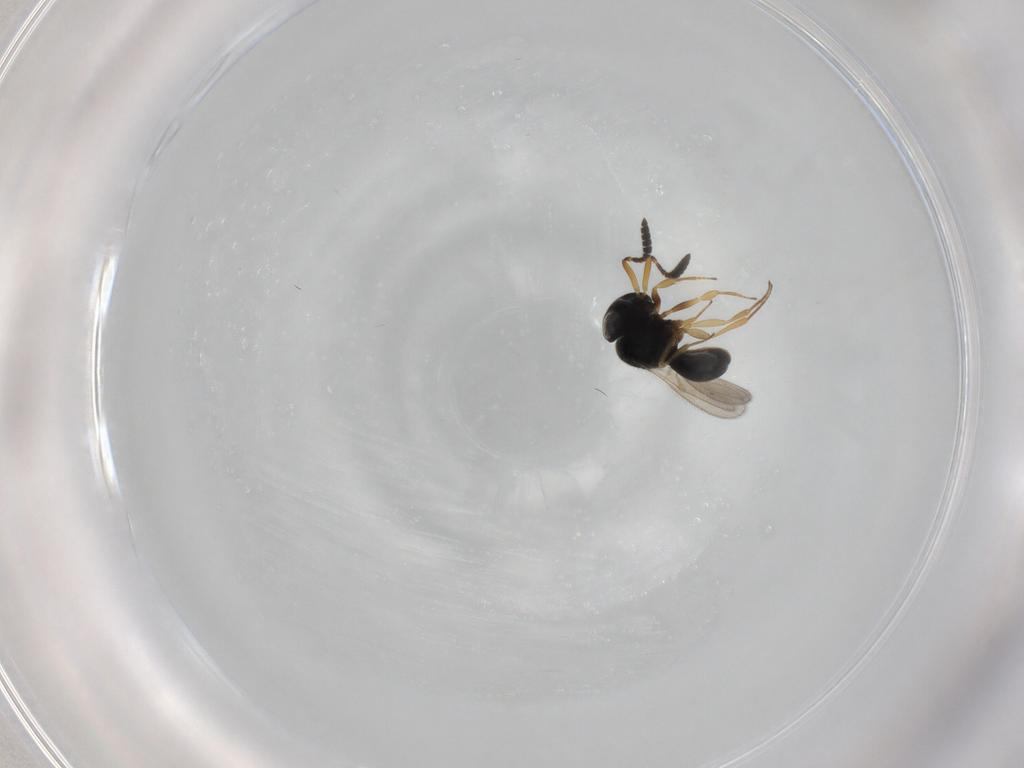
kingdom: Animalia
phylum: Arthropoda
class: Insecta
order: Hymenoptera
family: Scelionidae
